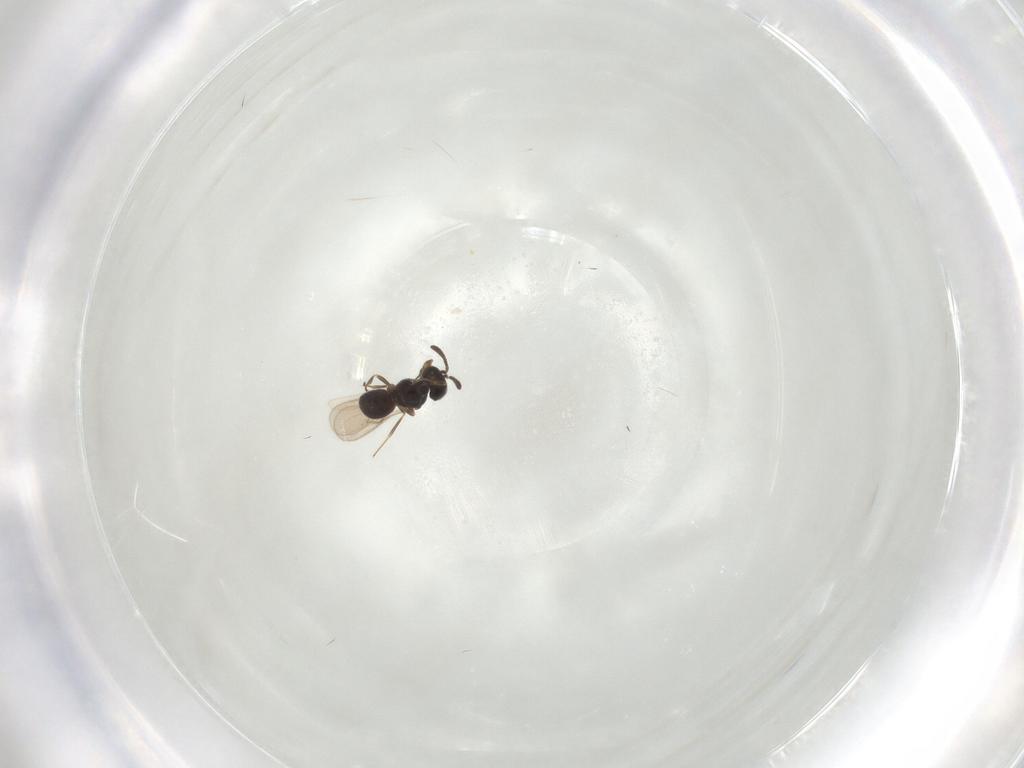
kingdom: Animalia
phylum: Arthropoda
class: Insecta
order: Hymenoptera
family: Scelionidae
